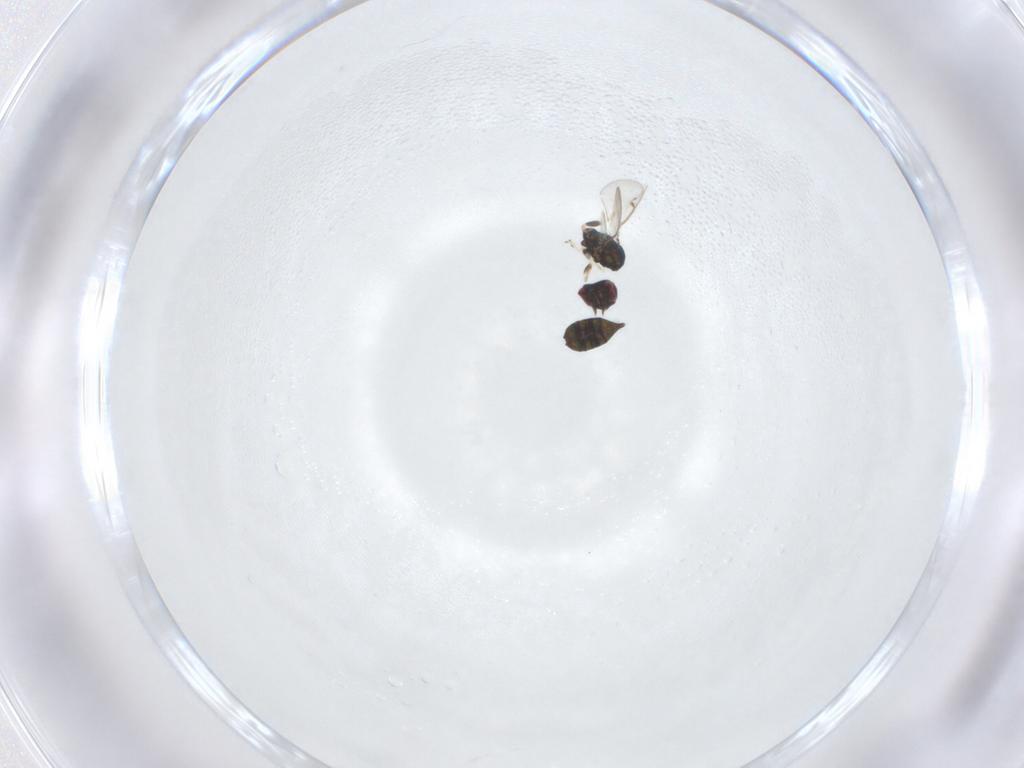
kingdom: Animalia
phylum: Arthropoda
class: Insecta
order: Hymenoptera
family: Eulophidae
